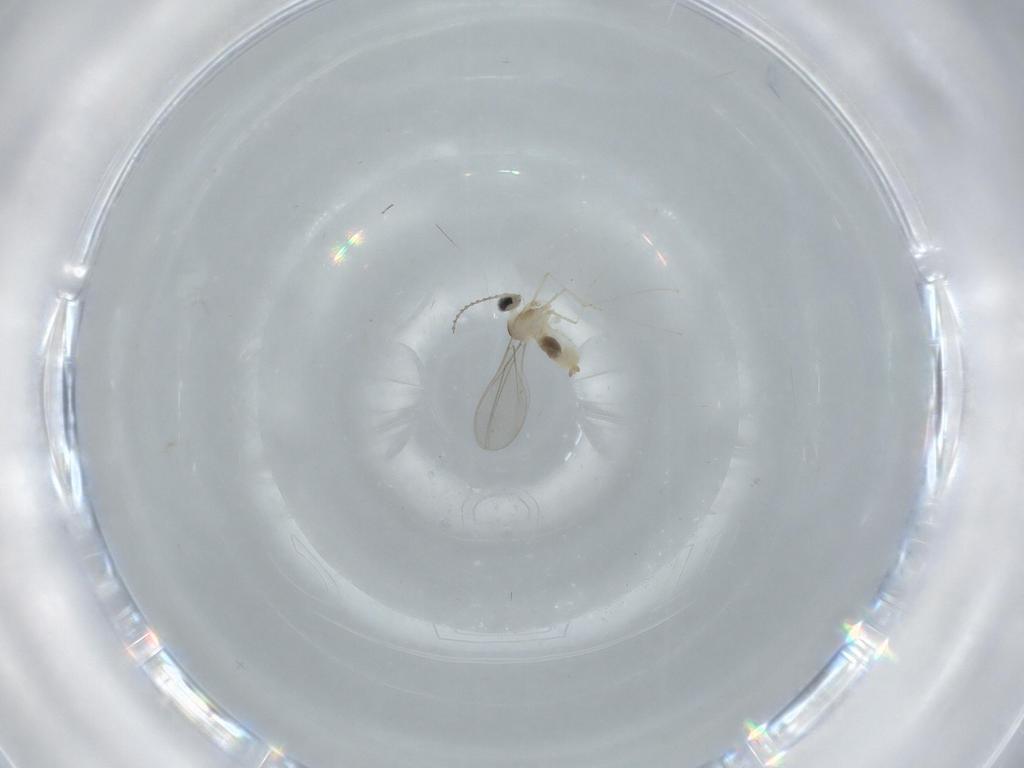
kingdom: Animalia
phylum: Arthropoda
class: Insecta
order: Diptera
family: Cecidomyiidae
